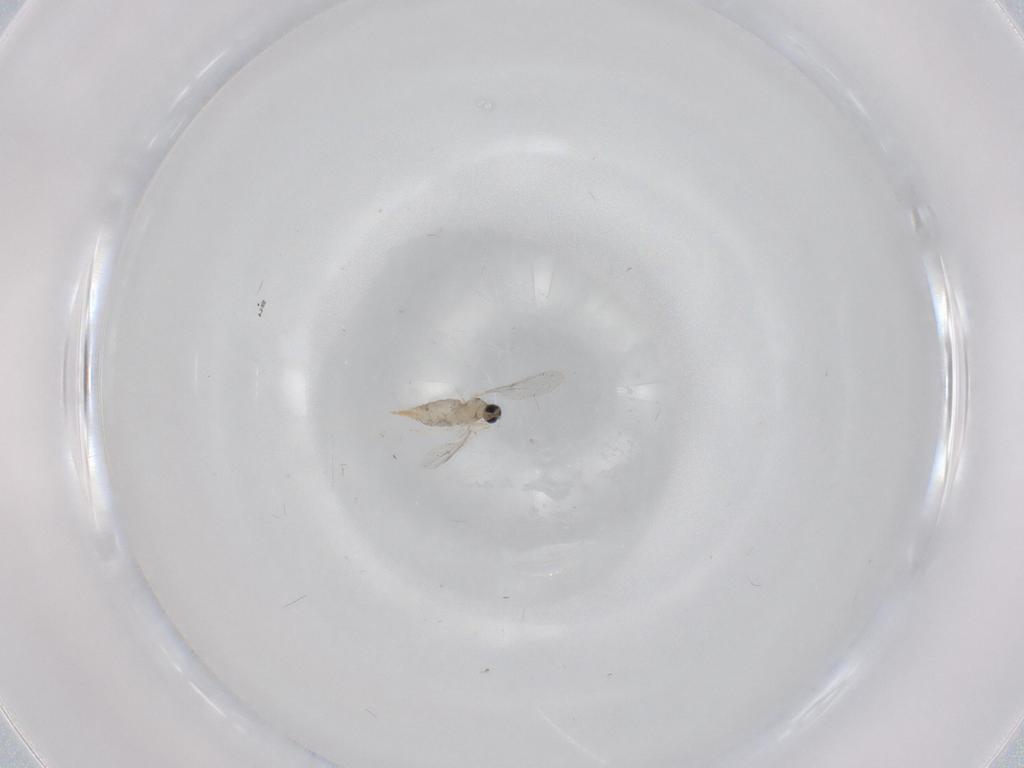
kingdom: Animalia
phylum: Arthropoda
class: Insecta
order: Diptera
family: Cecidomyiidae
